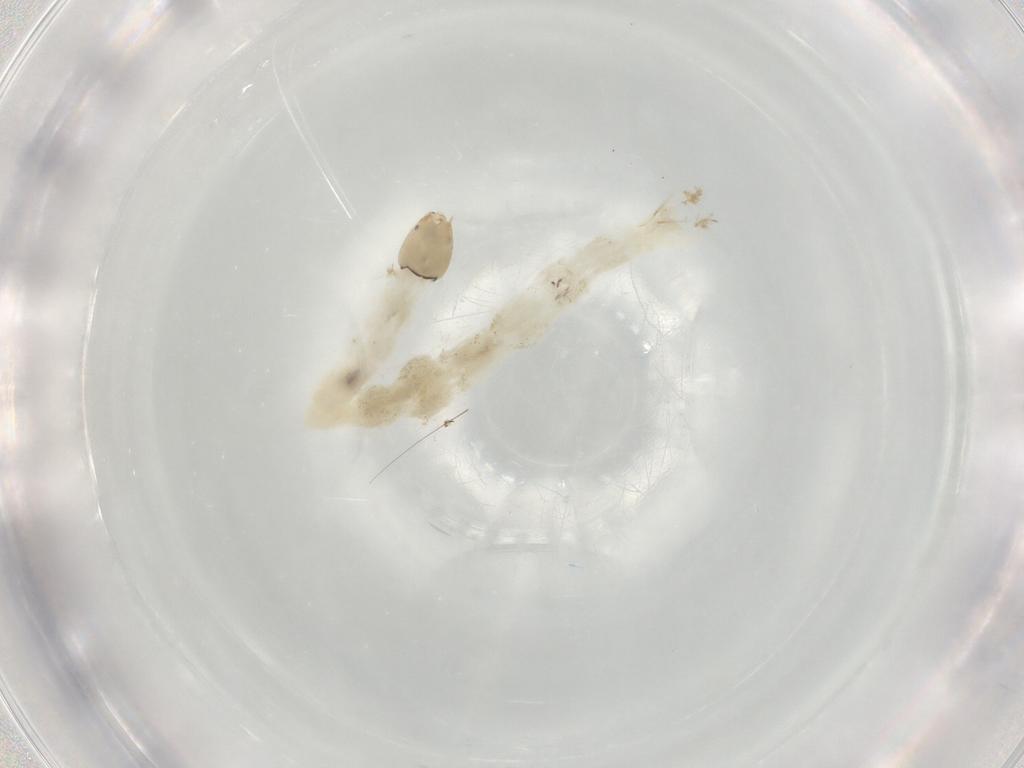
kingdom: Animalia
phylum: Arthropoda
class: Insecta
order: Diptera
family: Chironomidae
